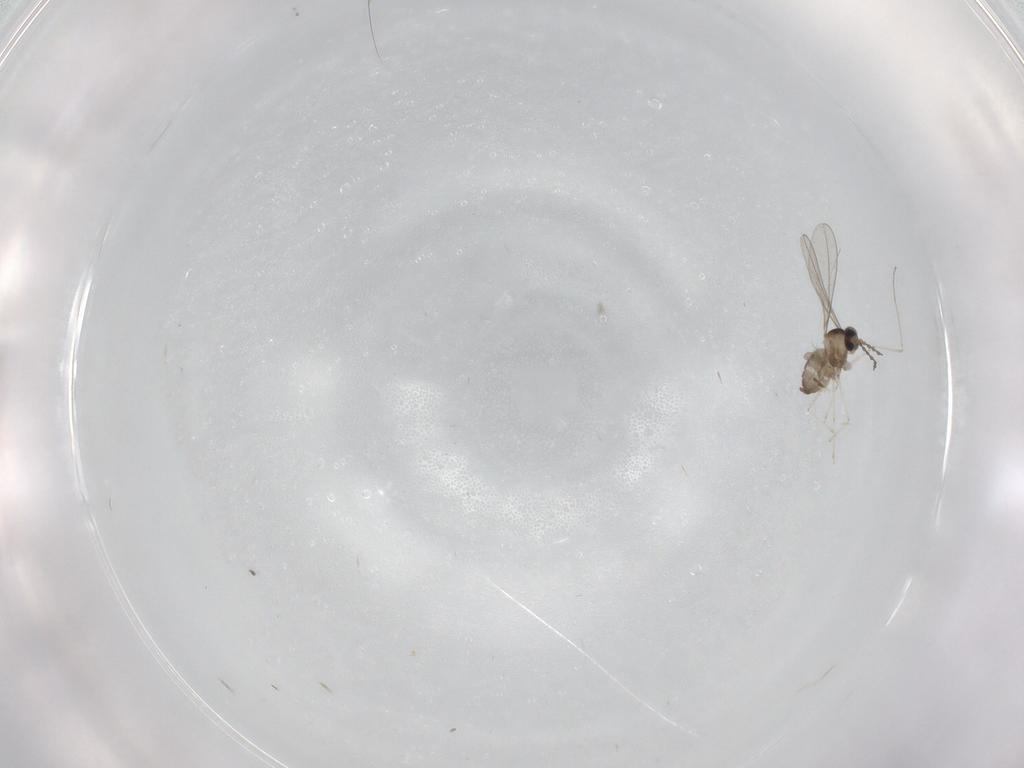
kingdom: Animalia
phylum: Arthropoda
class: Insecta
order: Diptera
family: Cecidomyiidae
